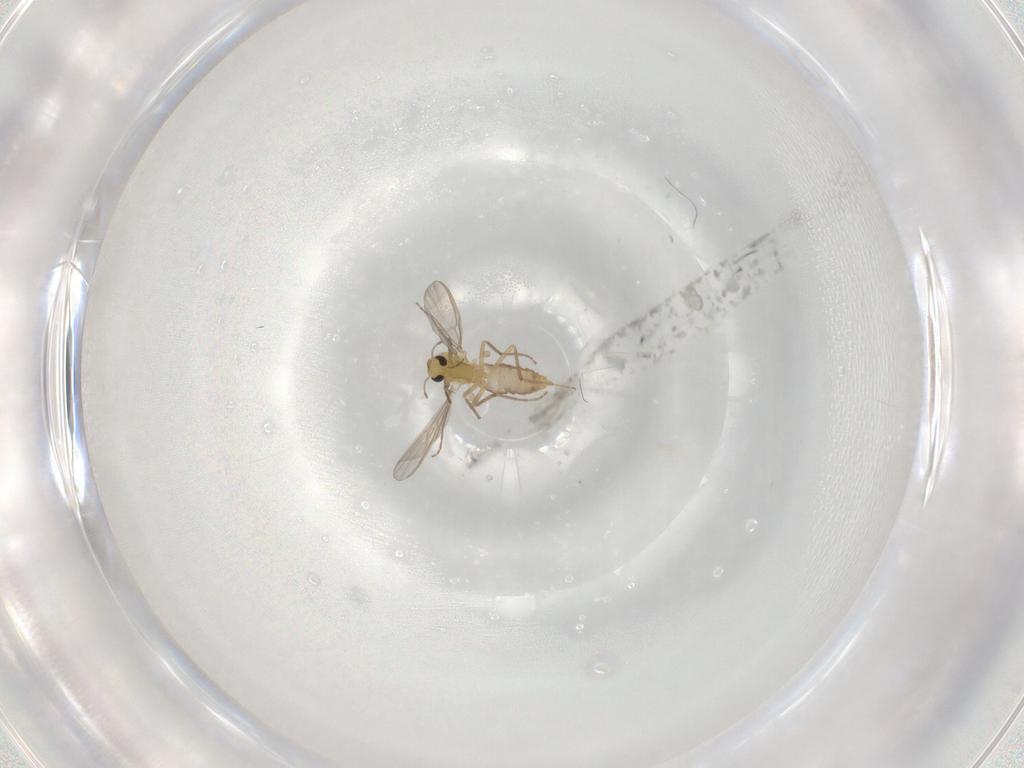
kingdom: Animalia
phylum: Arthropoda
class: Insecta
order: Diptera
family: Chironomidae
